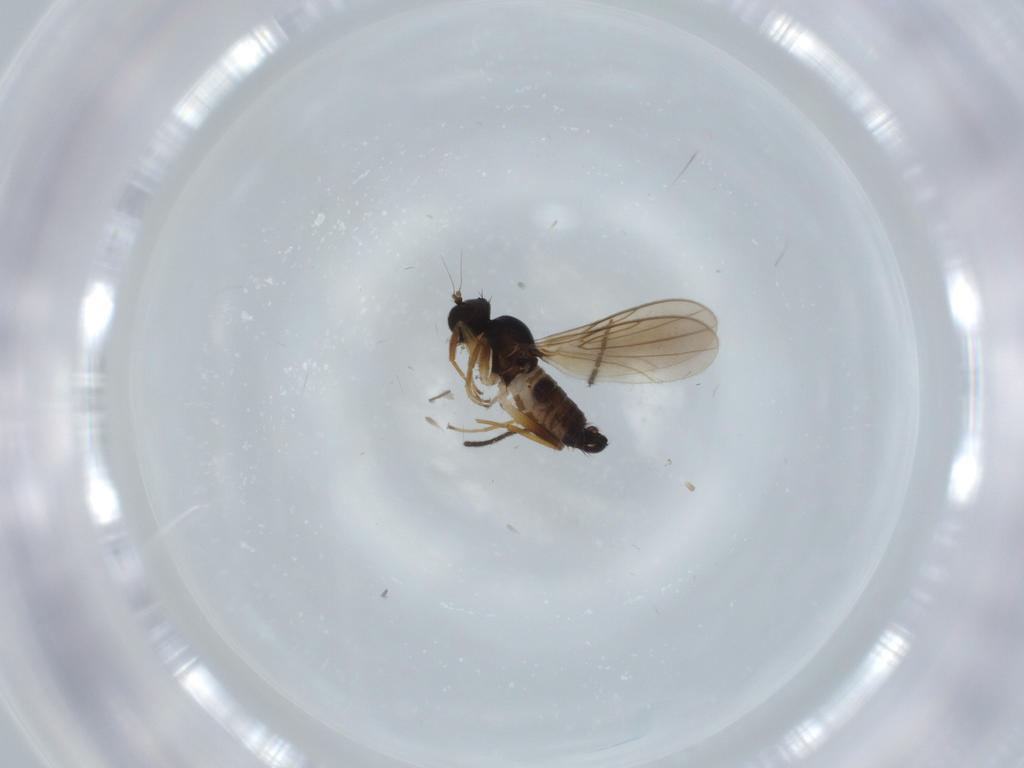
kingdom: Animalia
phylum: Arthropoda
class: Insecta
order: Diptera
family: Hybotidae
